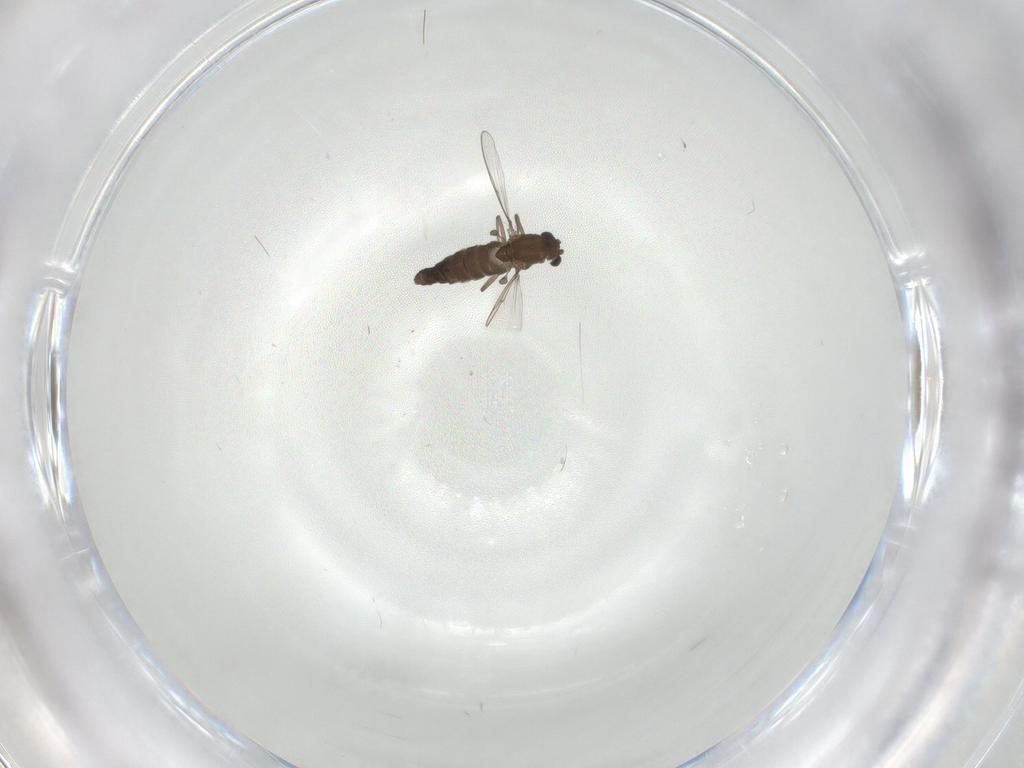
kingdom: Animalia
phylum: Arthropoda
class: Insecta
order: Diptera
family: Chironomidae
